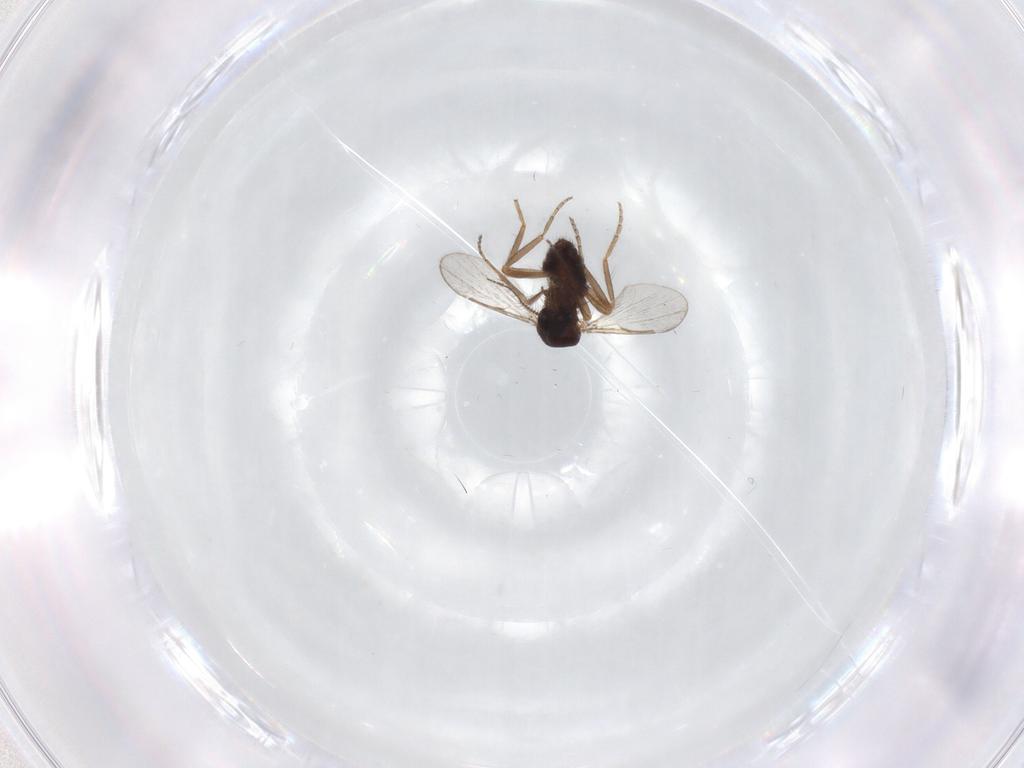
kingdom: Animalia
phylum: Arthropoda
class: Insecta
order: Diptera
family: Ceratopogonidae
